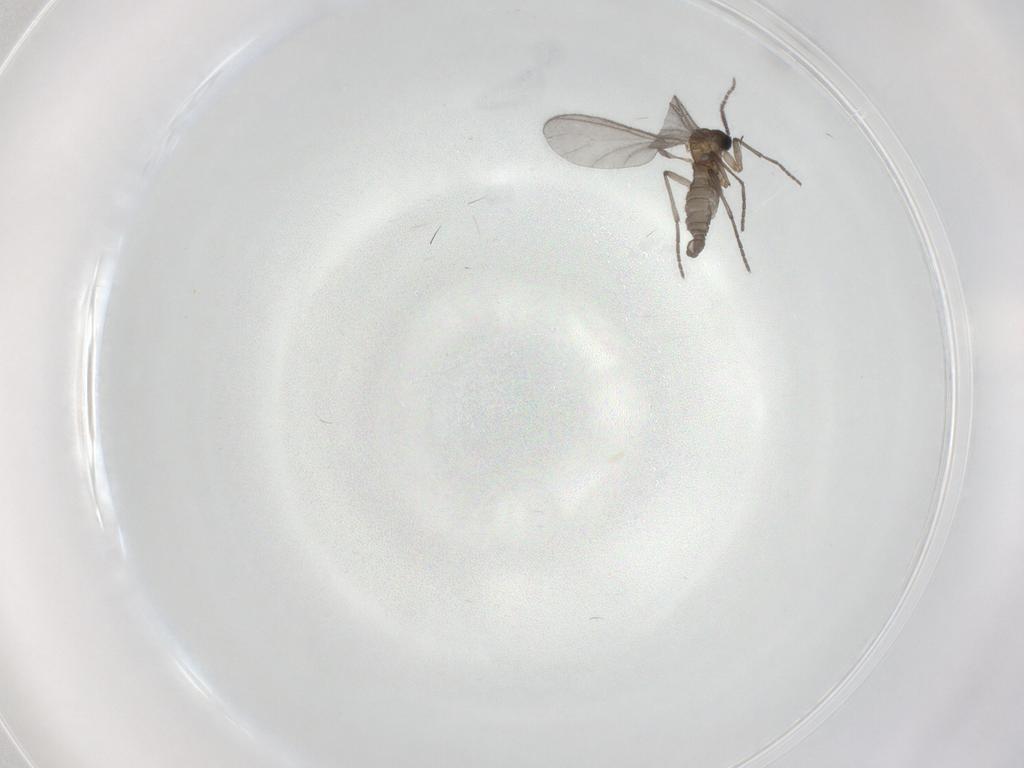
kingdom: Animalia
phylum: Arthropoda
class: Insecta
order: Diptera
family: Sciaridae
